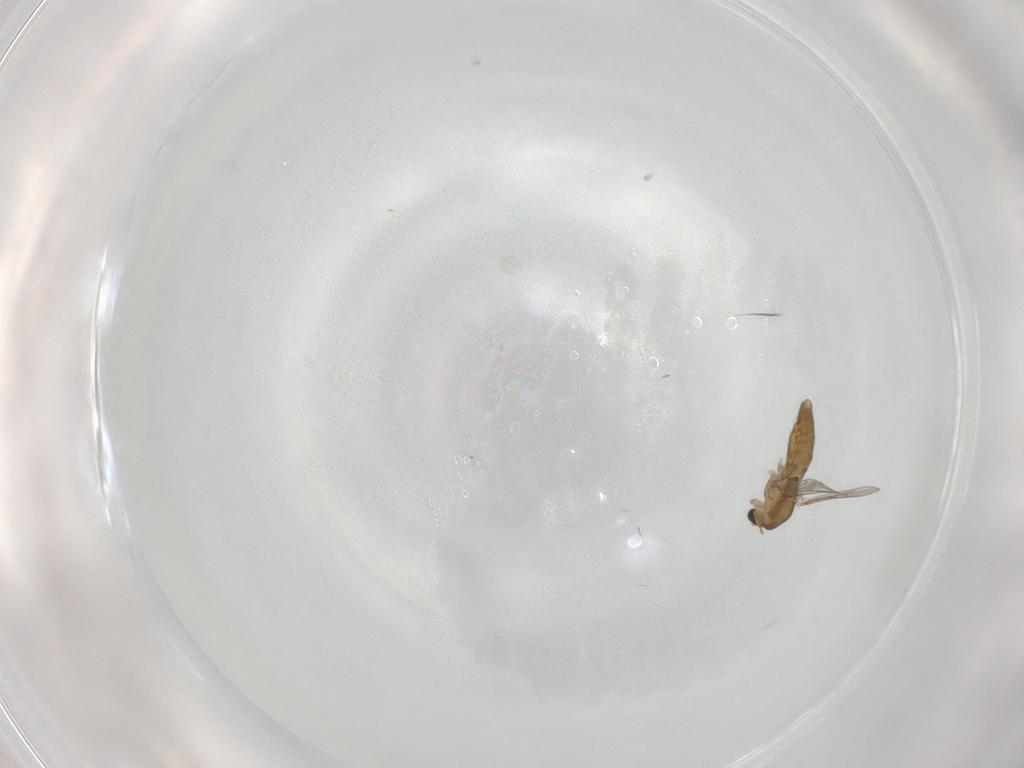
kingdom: Animalia
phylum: Arthropoda
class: Insecta
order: Diptera
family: Chironomidae
